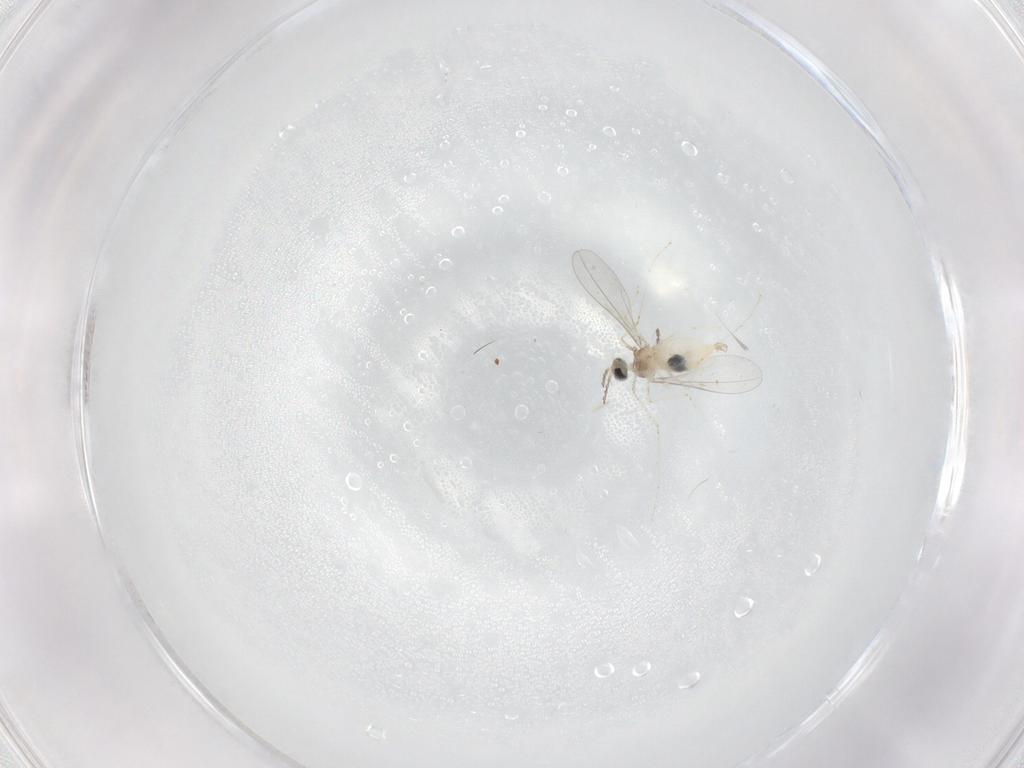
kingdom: Animalia
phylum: Arthropoda
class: Insecta
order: Diptera
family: Cecidomyiidae
